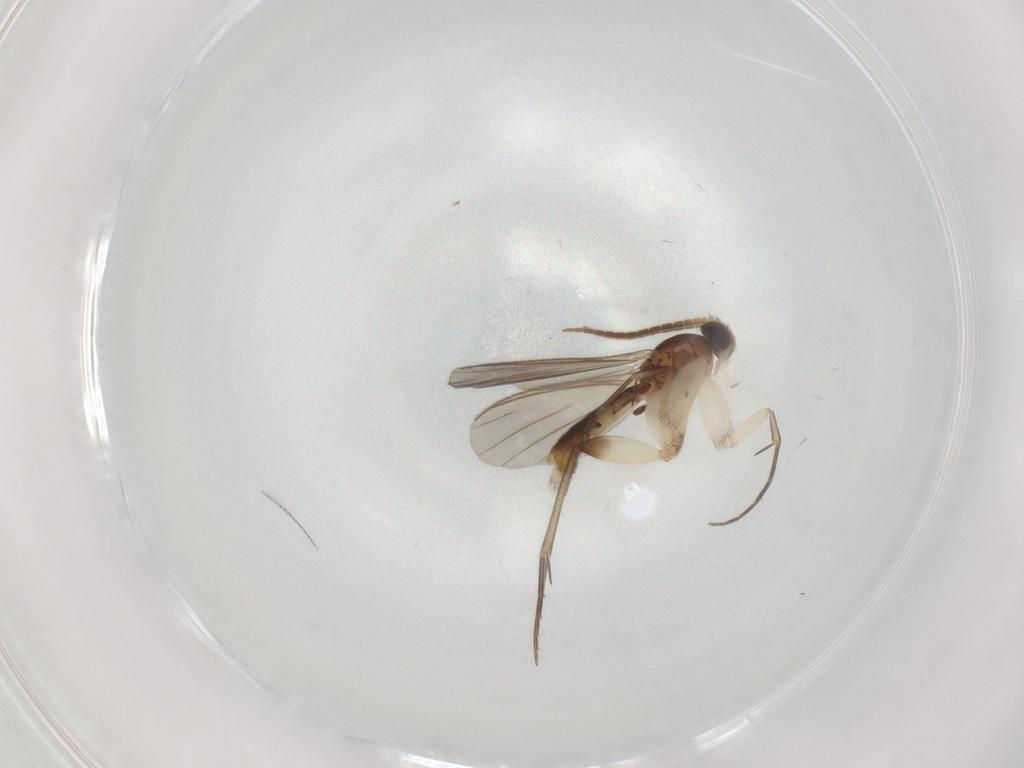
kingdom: Animalia
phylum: Arthropoda
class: Insecta
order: Diptera
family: Mycetophilidae
